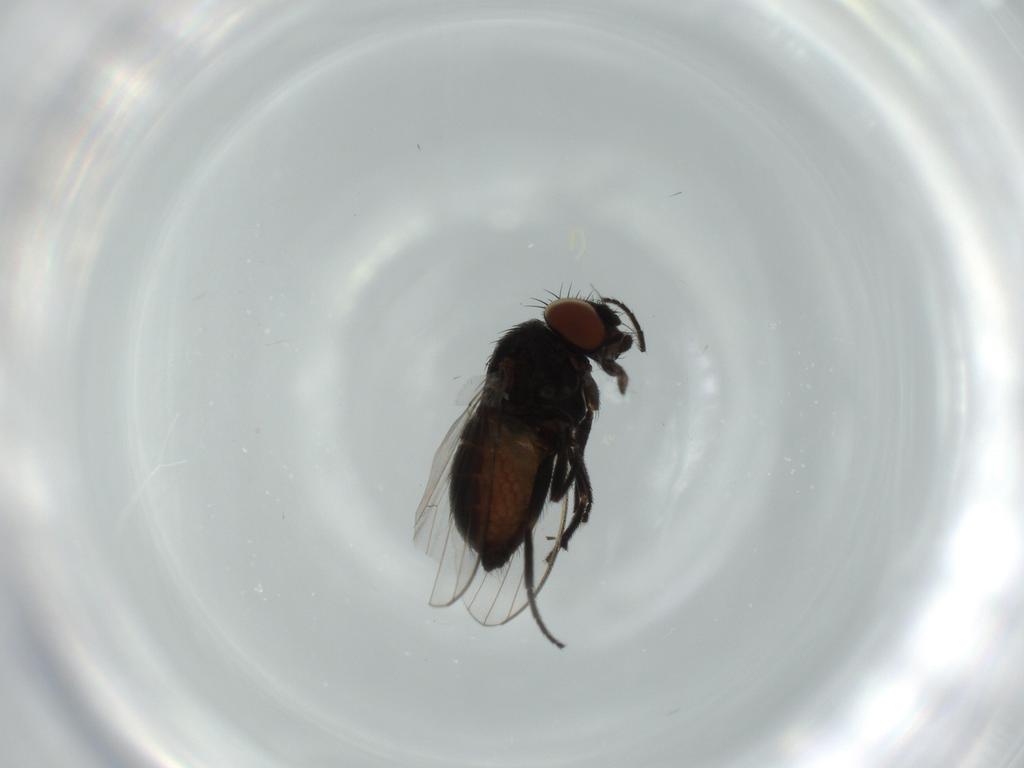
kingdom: Animalia
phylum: Arthropoda
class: Insecta
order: Diptera
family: Milichiidae
